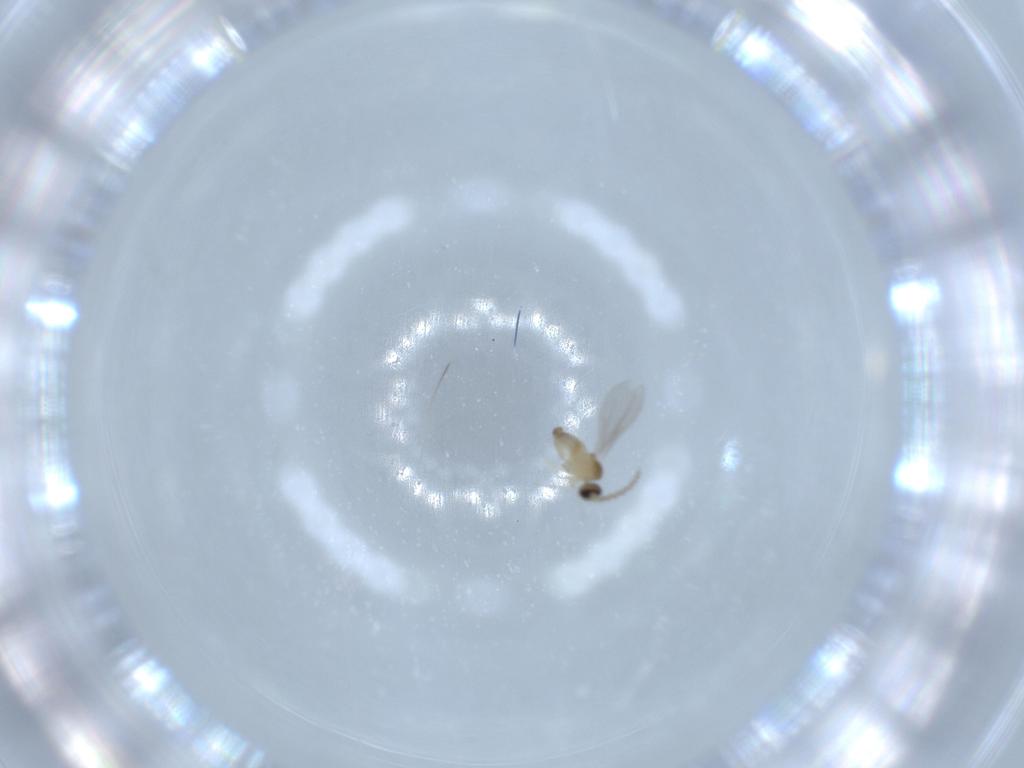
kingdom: Animalia
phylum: Arthropoda
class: Insecta
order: Diptera
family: Cecidomyiidae
